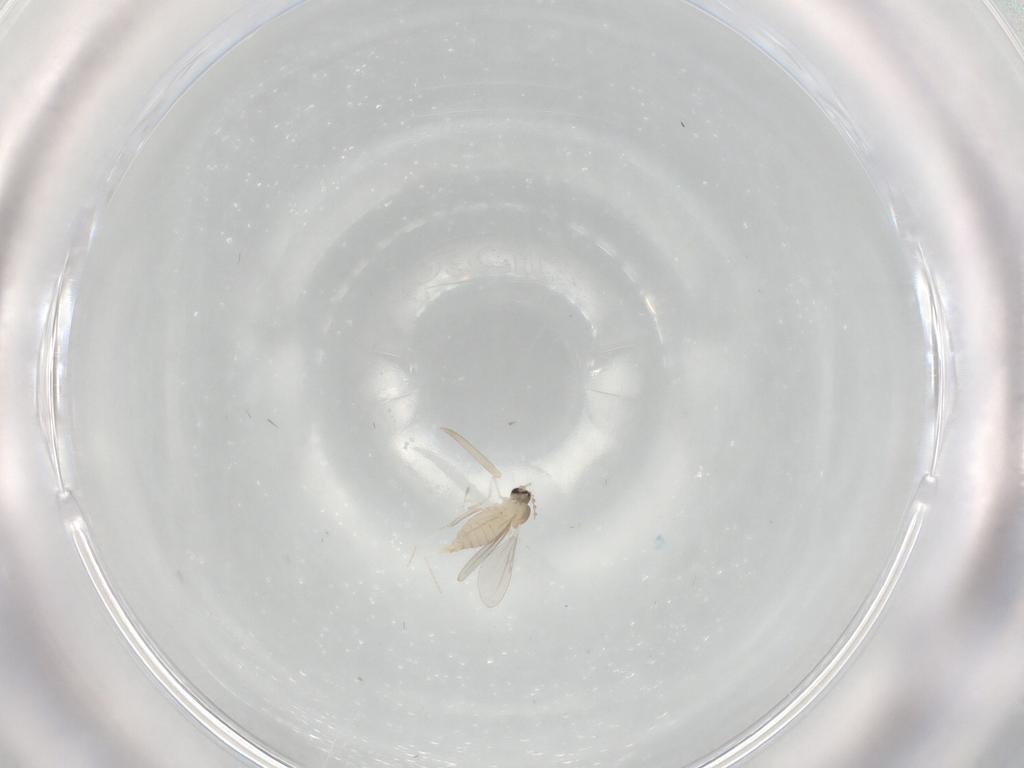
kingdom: Animalia
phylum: Arthropoda
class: Insecta
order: Diptera
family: Cecidomyiidae
